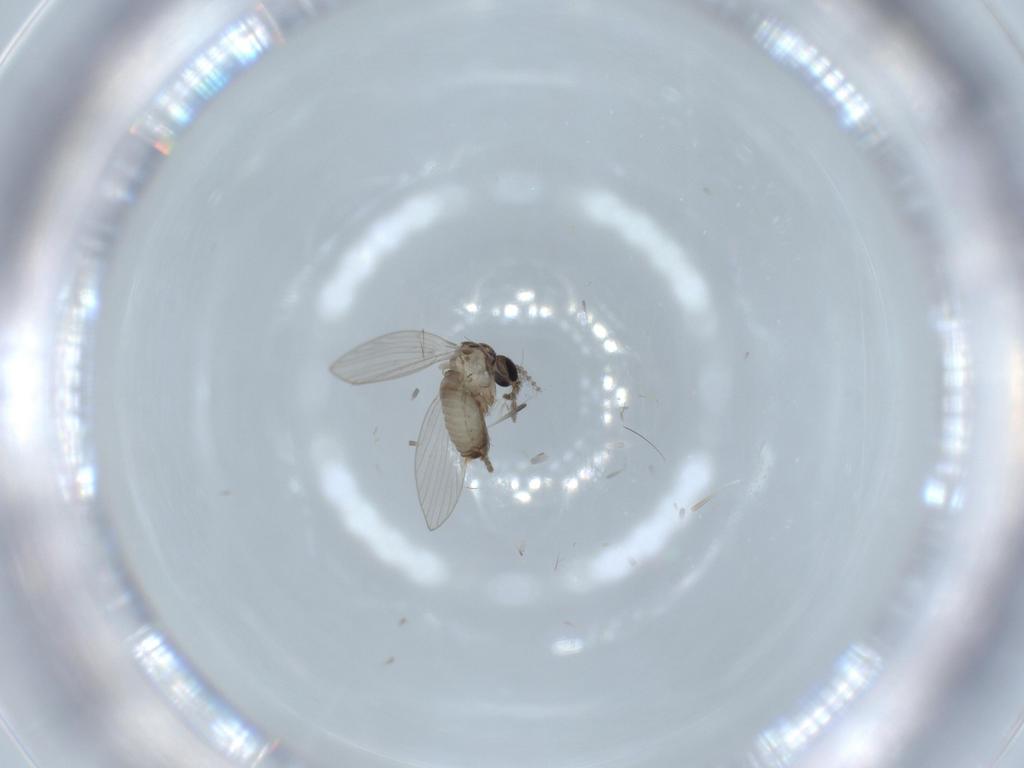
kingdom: Animalia
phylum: Arthropoda
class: Insecta
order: Diptera
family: Psychodidae
